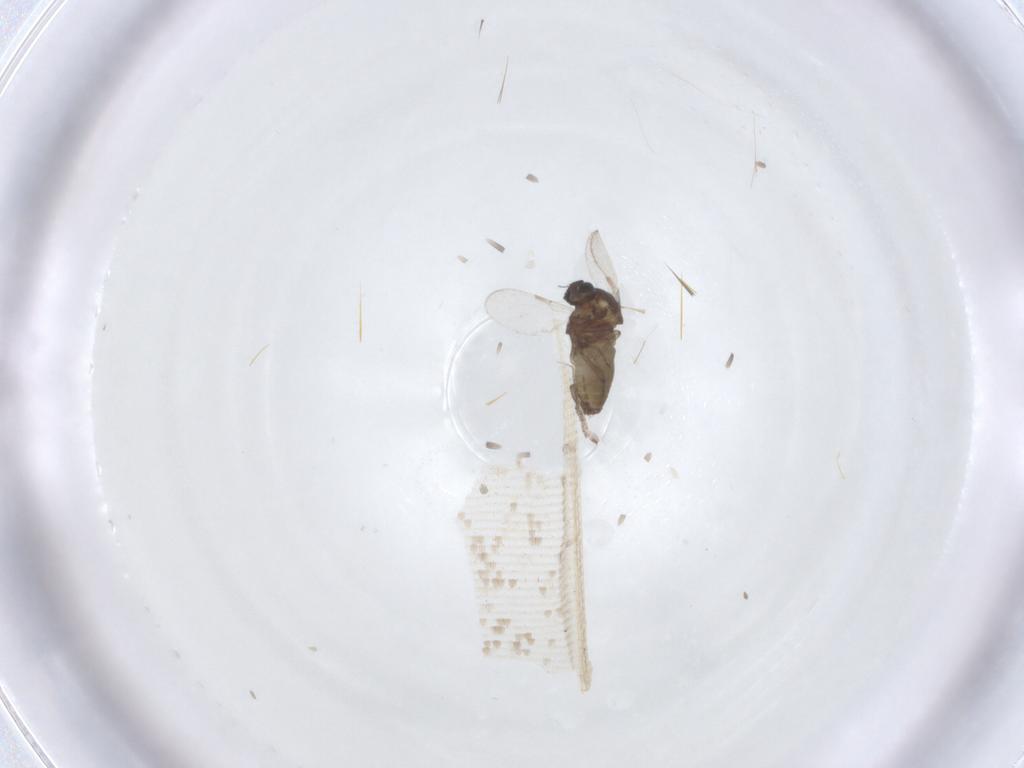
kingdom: Animalia
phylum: Arthropoda
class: Insecta
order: Diptera
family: Ceratopogonidae
